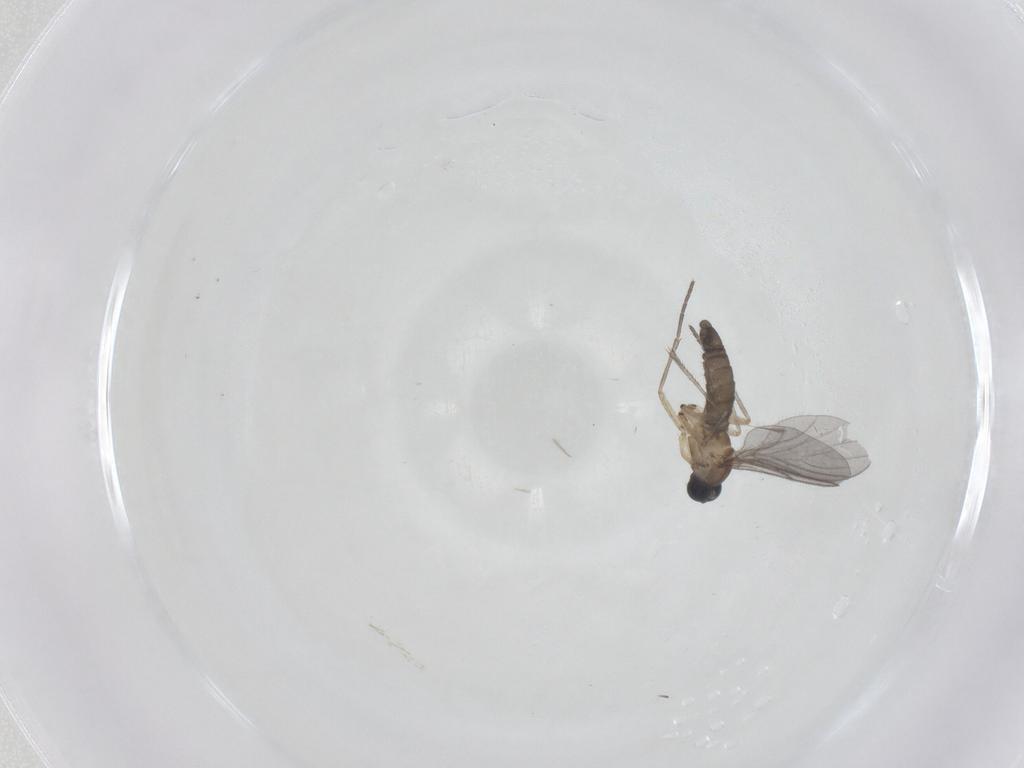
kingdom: Animalia
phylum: Arthropoda
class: Insecta
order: Diptera
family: Sciaridae
